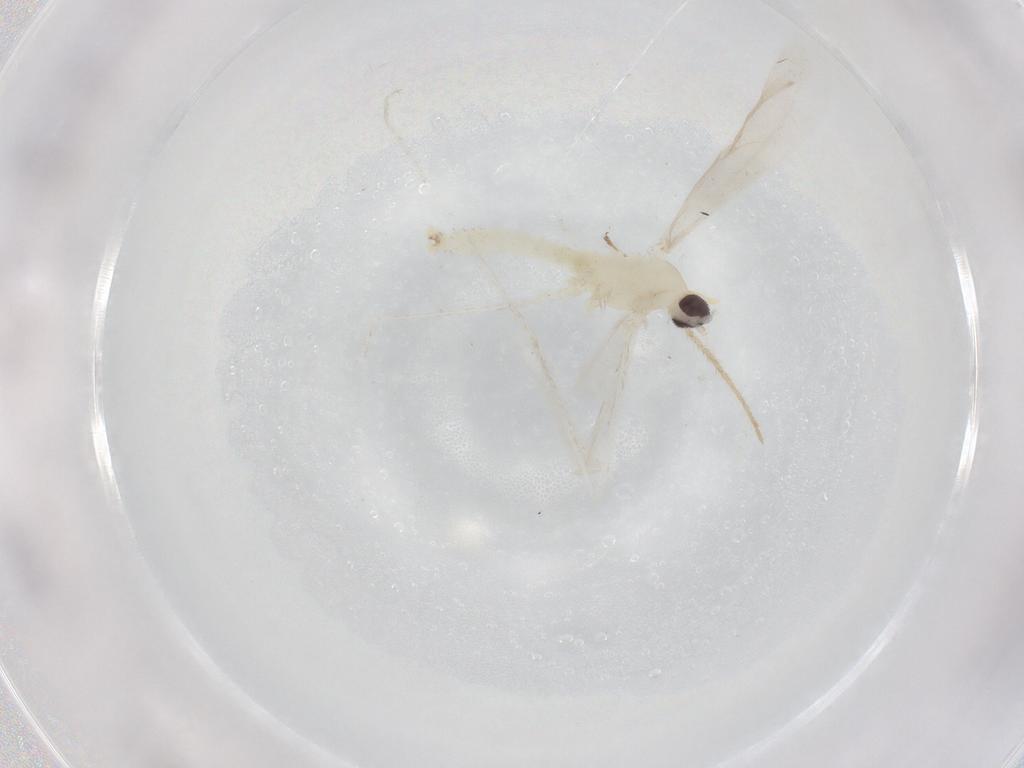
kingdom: Animalia
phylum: Arthropoda
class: Insecta
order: Diptera
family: Cecidomyiidae
